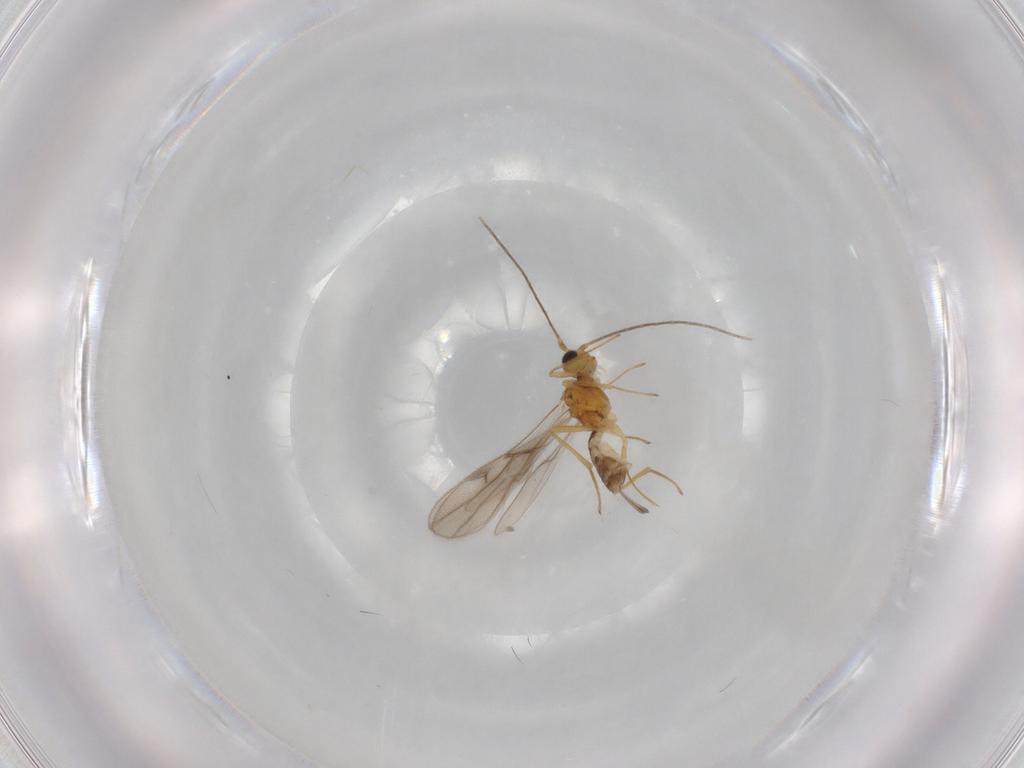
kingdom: Animalia
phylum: Arthropoda
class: Insecta
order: Hymenoptera
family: Braconidae
